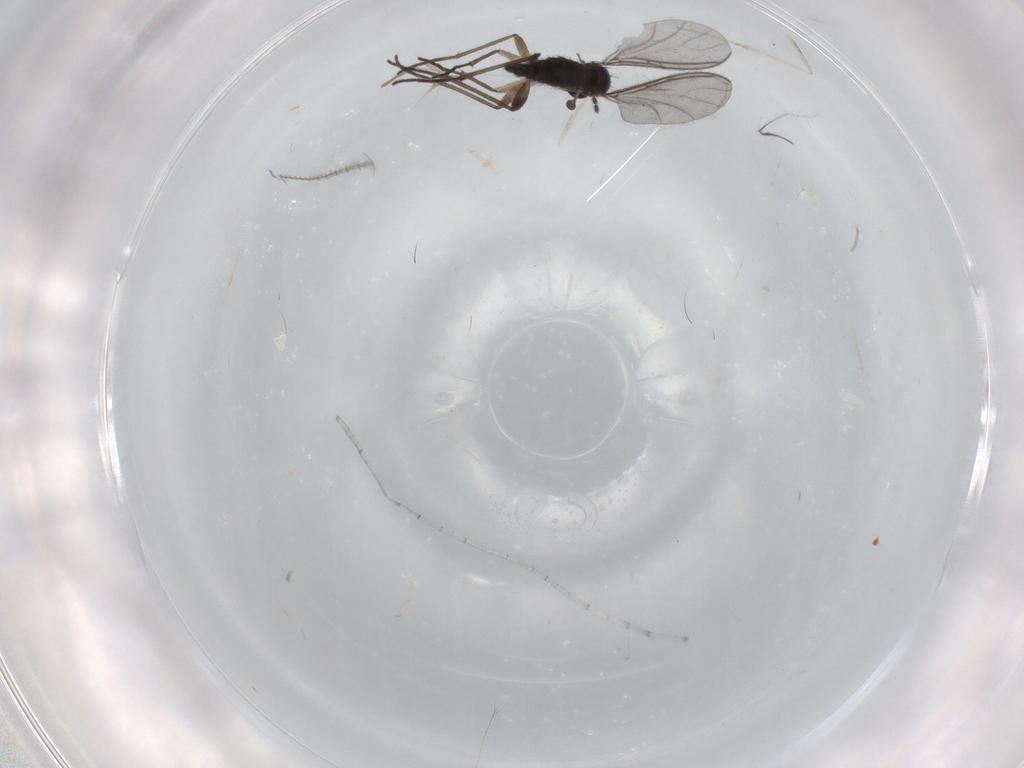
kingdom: Animalia
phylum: Arthropoda
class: Insecta
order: Diptera
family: Cecidomyiidae
